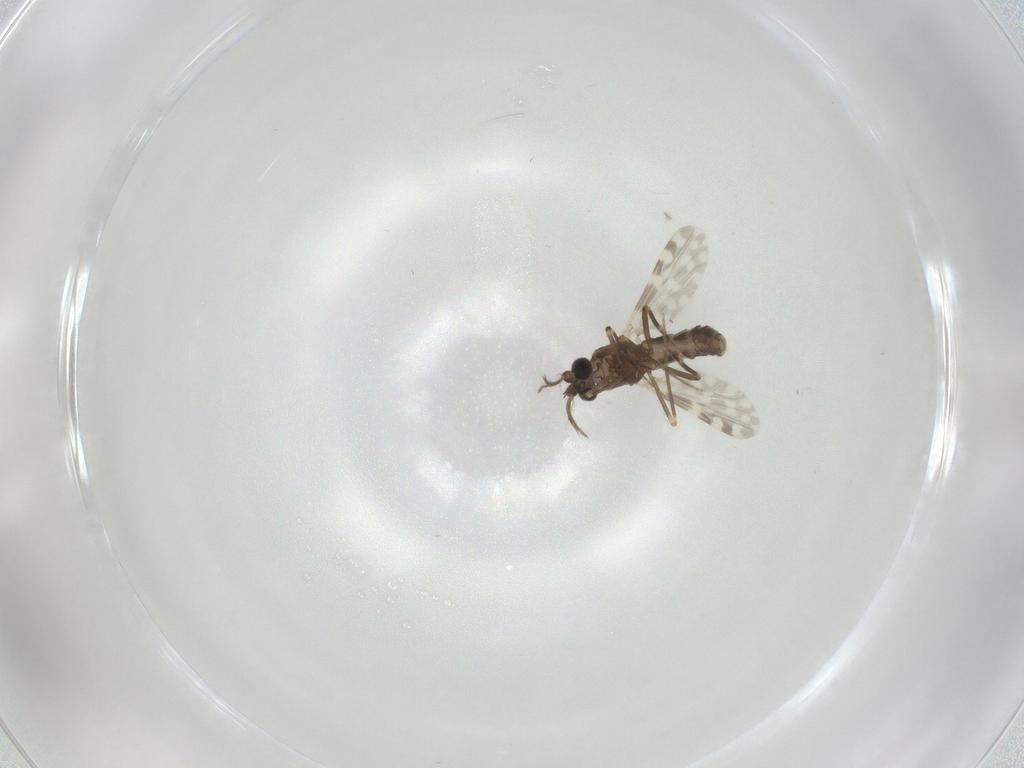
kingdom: Animalia
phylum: Arthropoda
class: Insecta
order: Diptera
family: Ceratopogonidae
